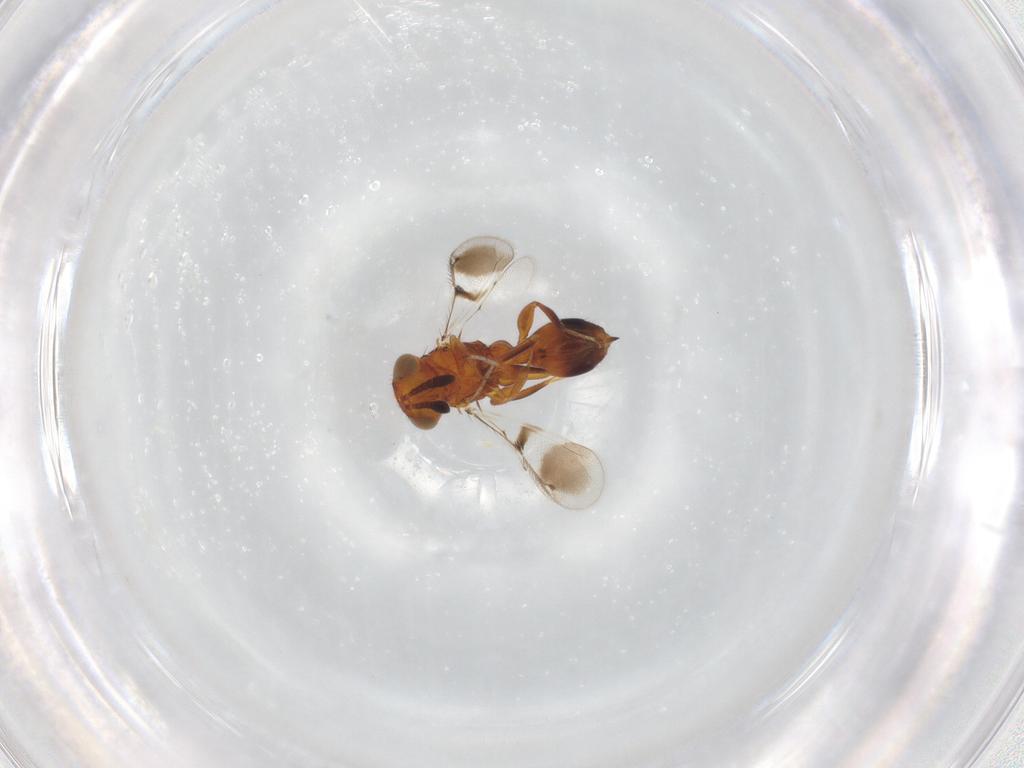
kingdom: Animalia
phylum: Arthropoda
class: Insecta
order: Hymenoptera
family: Moranilidae
